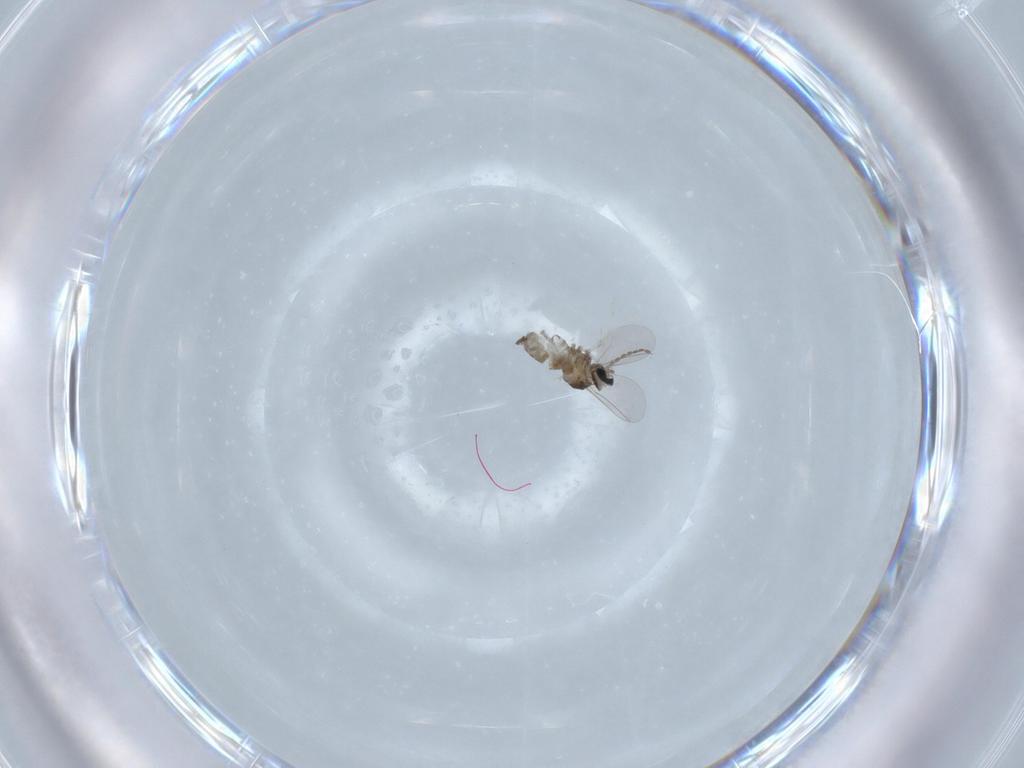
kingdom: Animalia
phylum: Arthropoda
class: Insecta
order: Diptera
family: Cecidomyiidae
